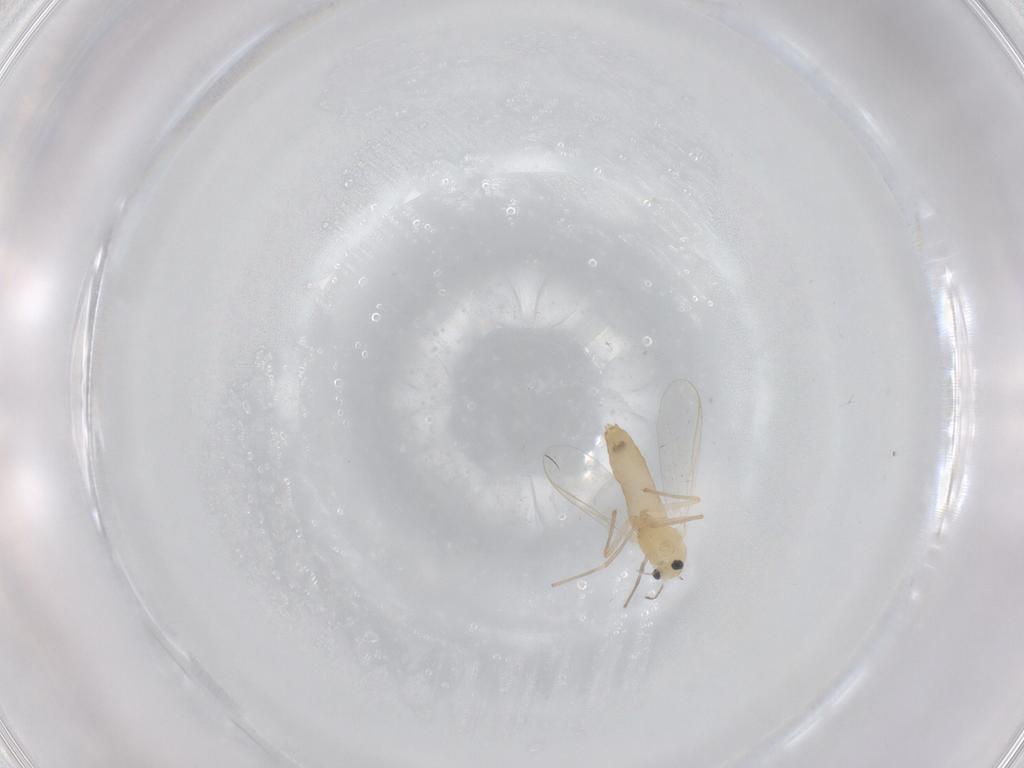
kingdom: Animalia
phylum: Arthropoda
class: Insecta
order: Diptera
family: Chironomidae
